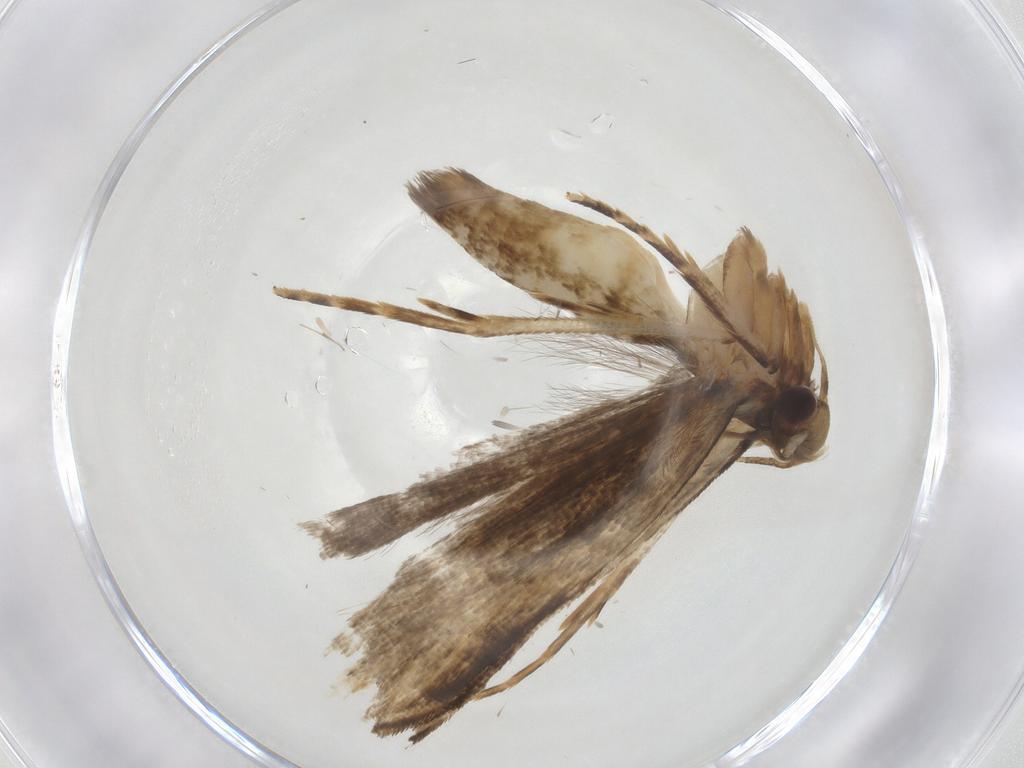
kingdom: Animalia
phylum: Arthropoda
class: Insecta
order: Lepidoptera
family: Gelechiidae
